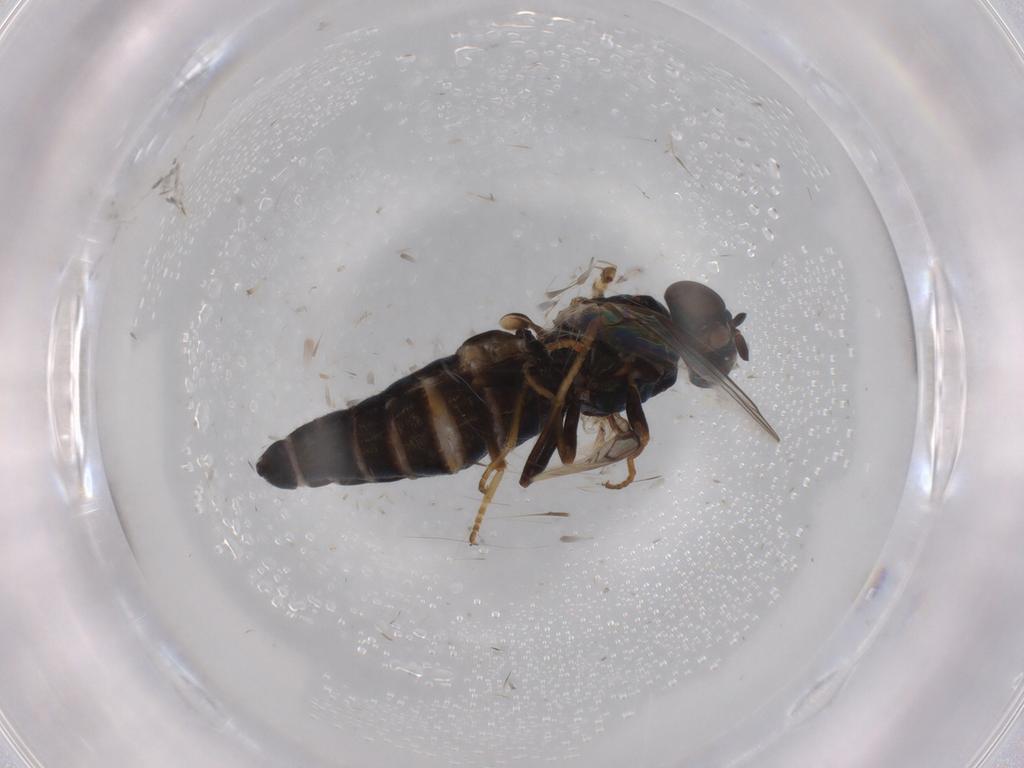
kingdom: Animalia
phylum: Arthropoda
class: Insecta
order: Diptera
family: Scenopinidae
